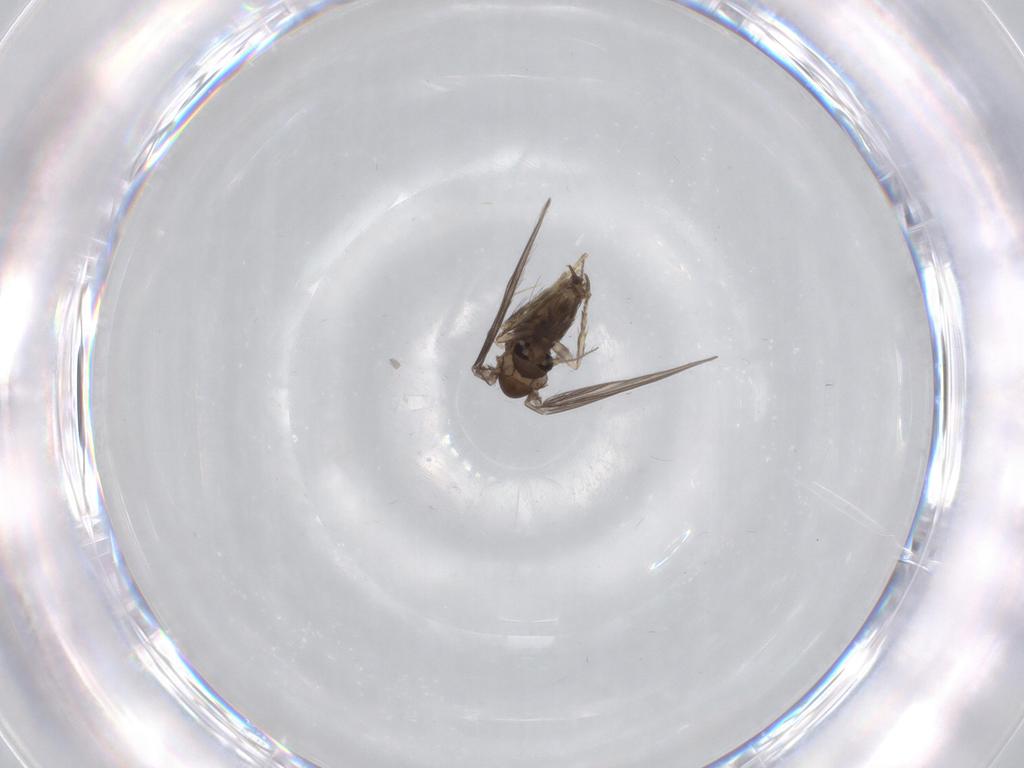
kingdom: Animalia
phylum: Arthropoda
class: Insecta
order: Diptera
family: Psychodidae
